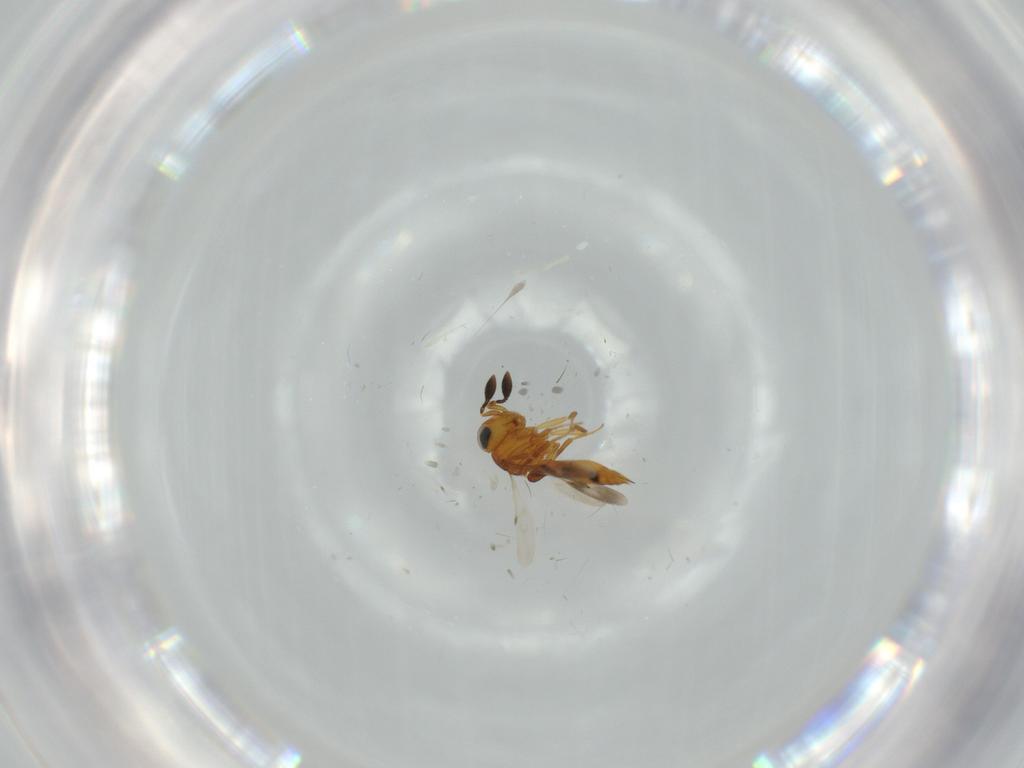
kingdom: Animalia
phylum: Arthropoda
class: Insecta
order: Hymenoptera
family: Scelionidae
